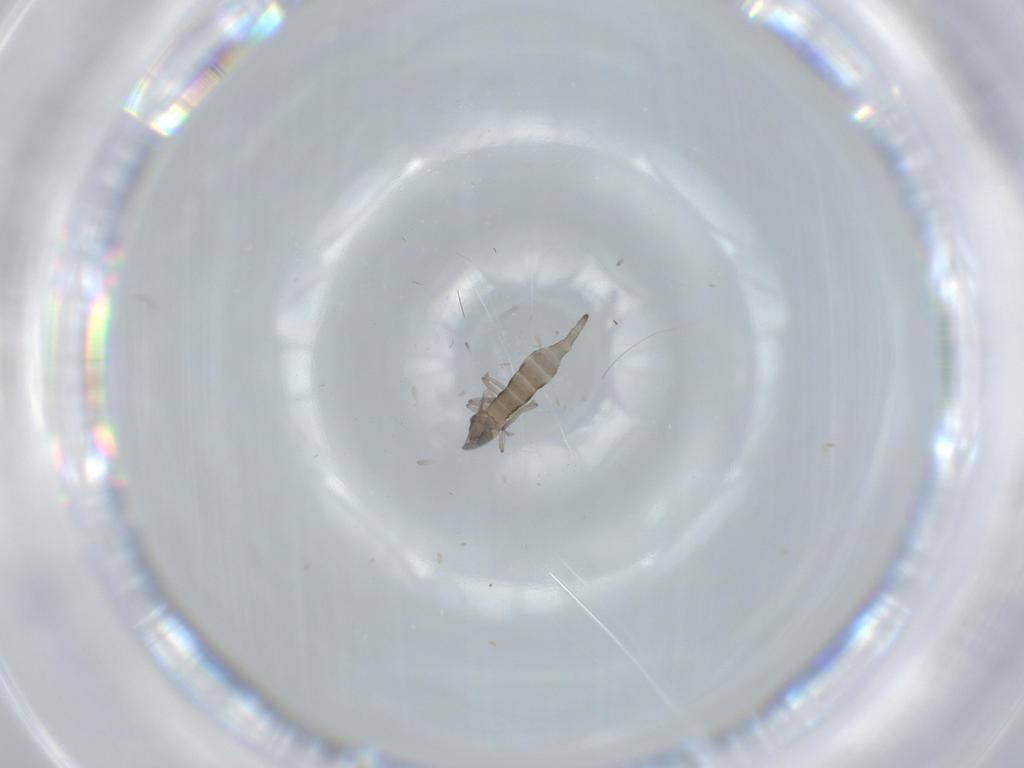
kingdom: Animalia
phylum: Arthropoda
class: Insecta
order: Diptera
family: Cecidomyiidae
